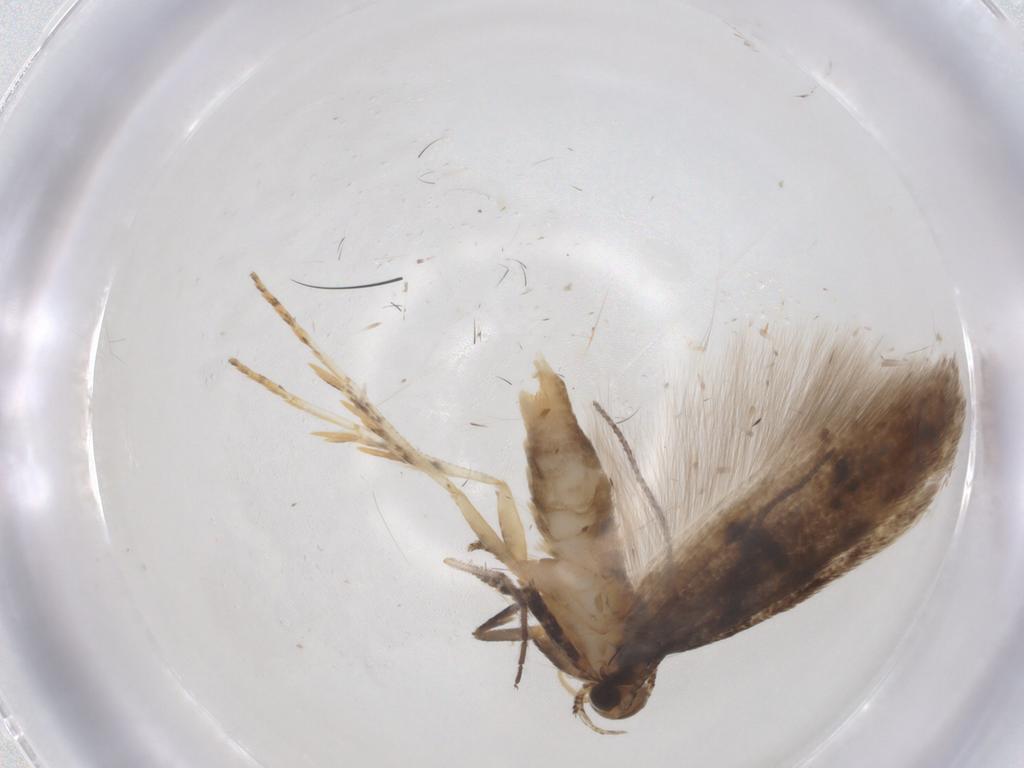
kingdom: Animalia
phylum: Arthropoda
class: Insecta
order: Lepidoptera
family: Gelechiidae
